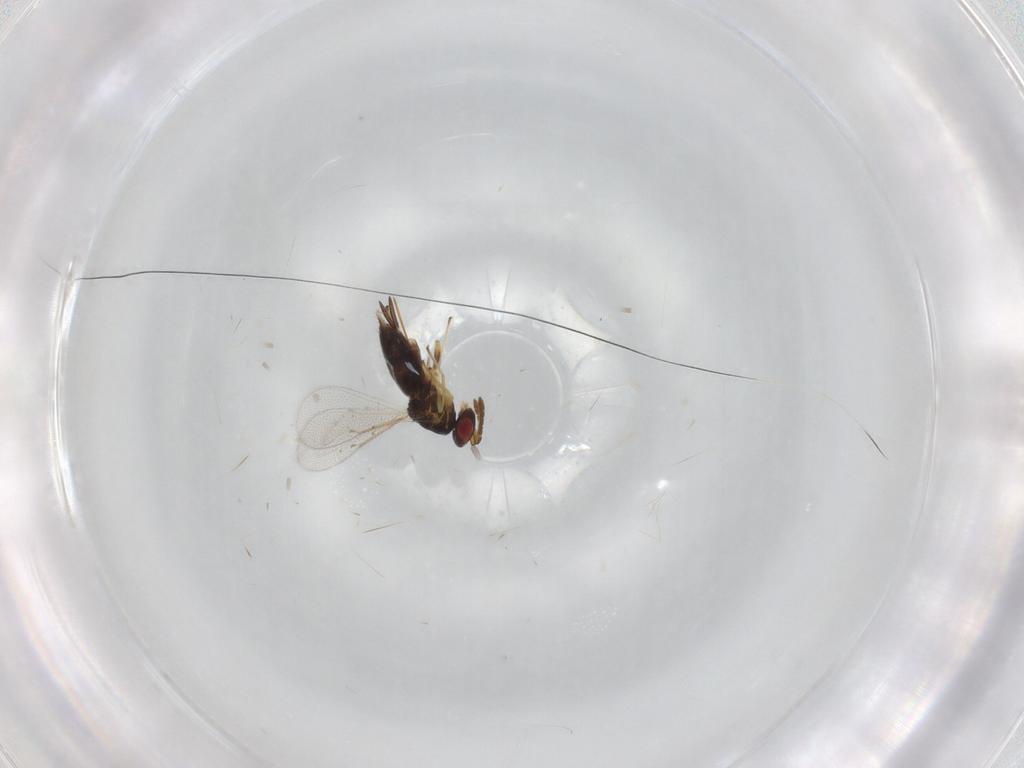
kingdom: Animalia
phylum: Arthropoda
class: Insecta
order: Hymenoptera
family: Eulophidae
